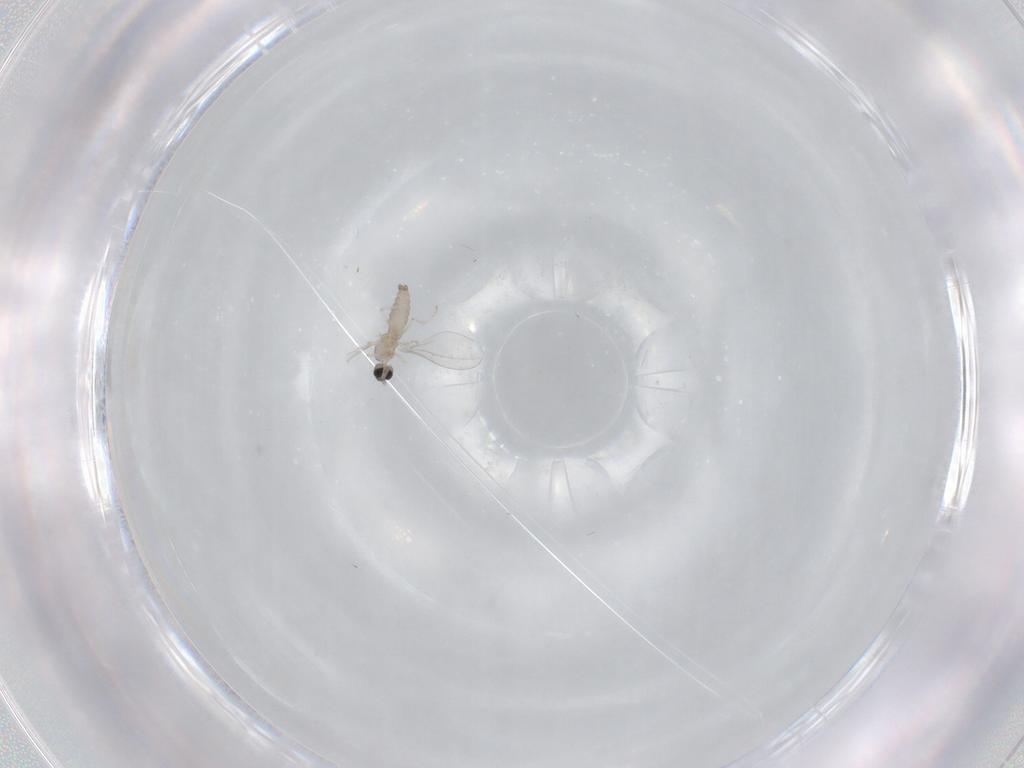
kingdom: Animalia
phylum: Arthropoda
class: Insecta
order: Diptera
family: Cecidomyiidae
